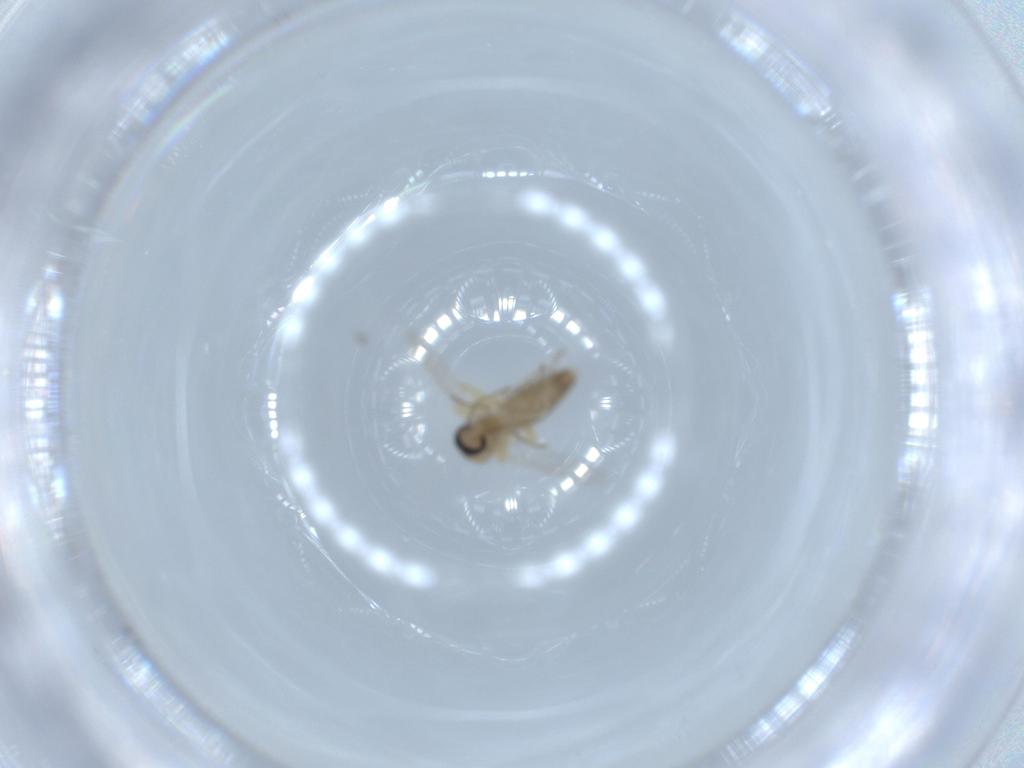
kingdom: Animalia
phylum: Arthropoda
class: Insecta
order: Diptera
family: Ceratopogonidae
